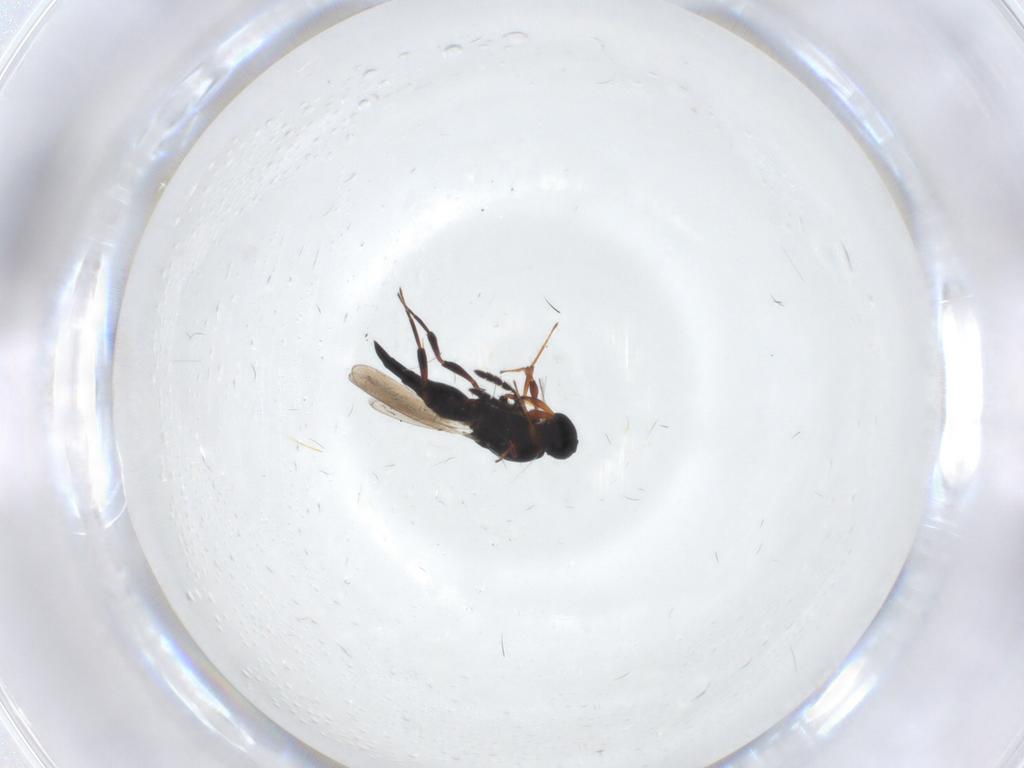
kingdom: Animalia
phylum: Arthropoda
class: Insecta
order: Hymenoptera
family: Platygastridae
